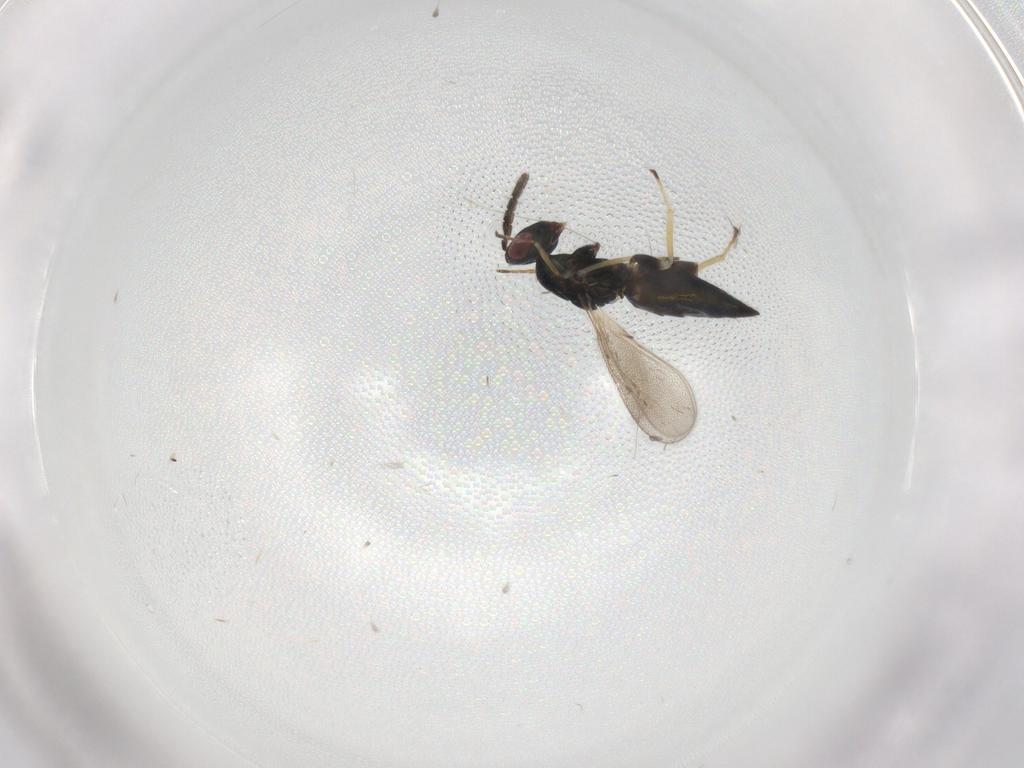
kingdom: Animalia
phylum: Arthropoda
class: Insecta
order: Hymenoptera
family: Eulophidae
